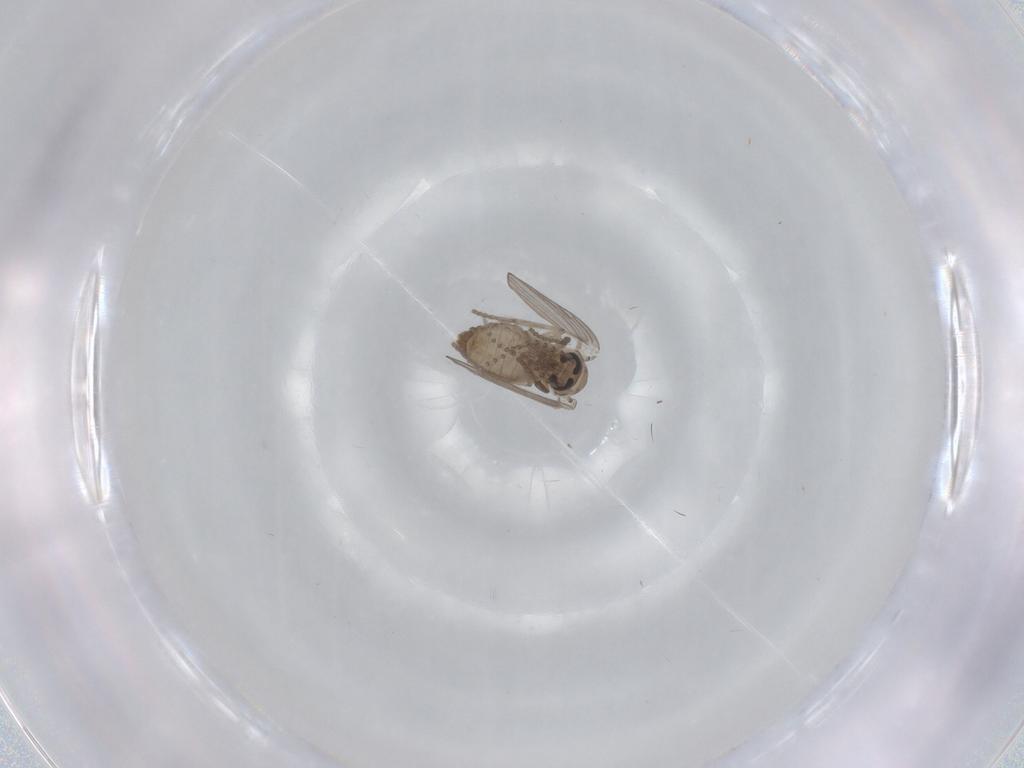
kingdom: Animalia
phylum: Arthropoda
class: Insecta
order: Diptera
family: Psychodidae
